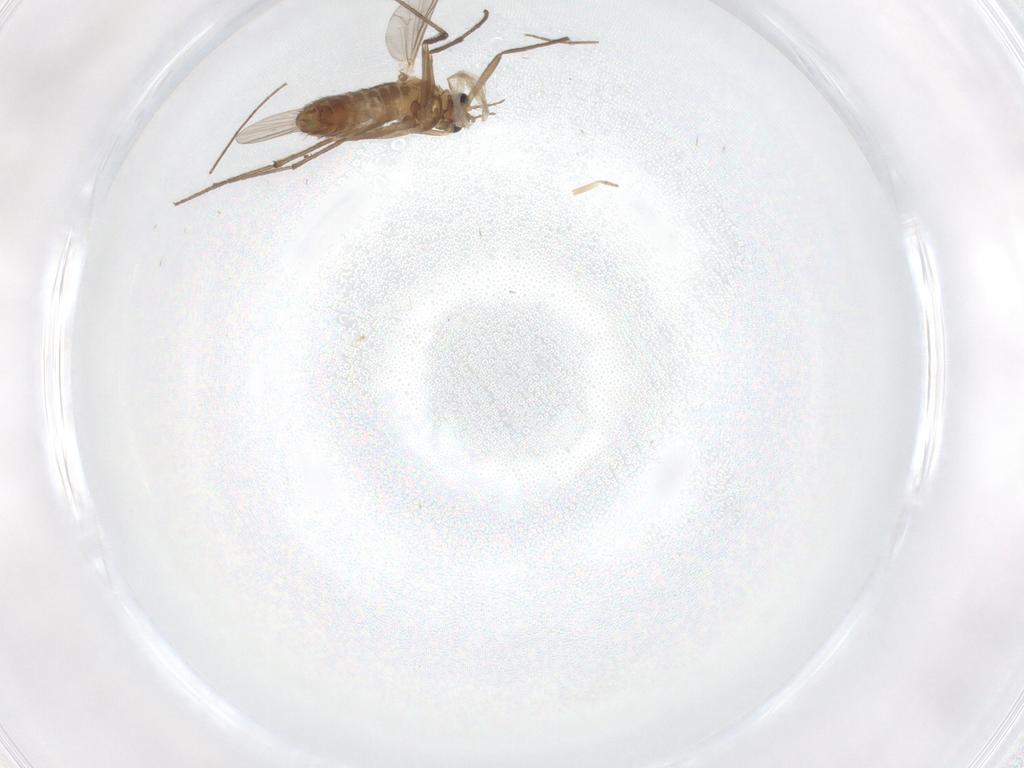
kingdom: Animalia
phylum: Arthropoda
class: Insecta
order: Diptera
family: Chironomidae
